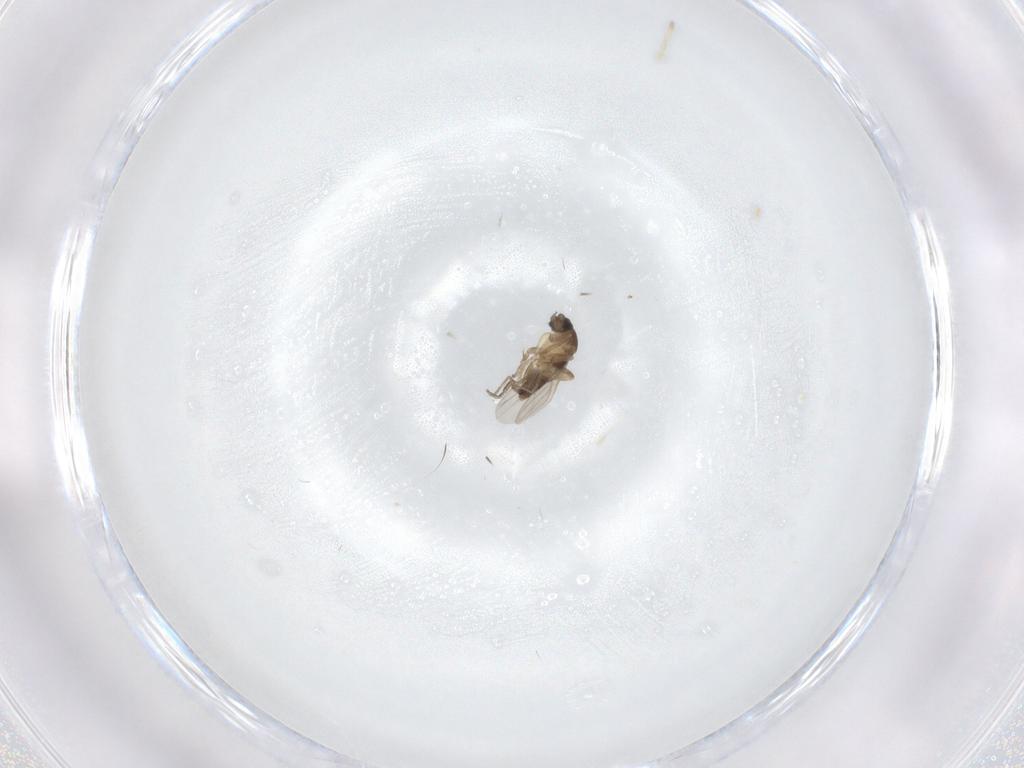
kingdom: Animalia
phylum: Arthropoda
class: Insecta
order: Diptera
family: Phoridae
